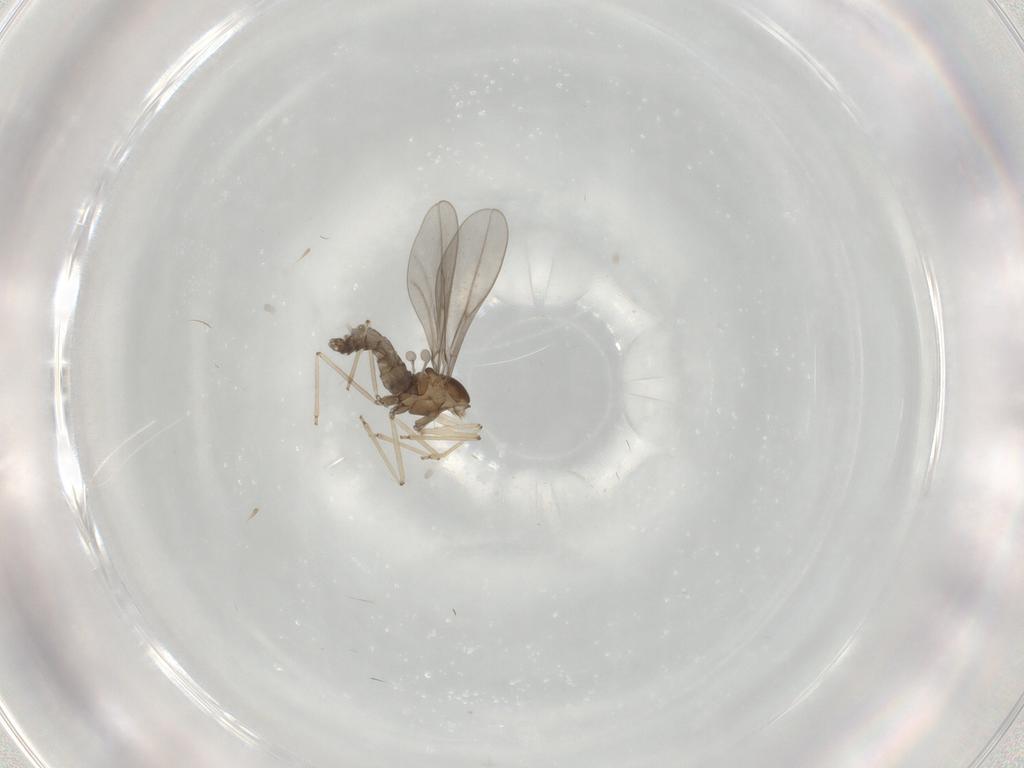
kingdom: Animalia
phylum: Arthropoda
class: Insecta
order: Diptera
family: Cecidomyiidae
